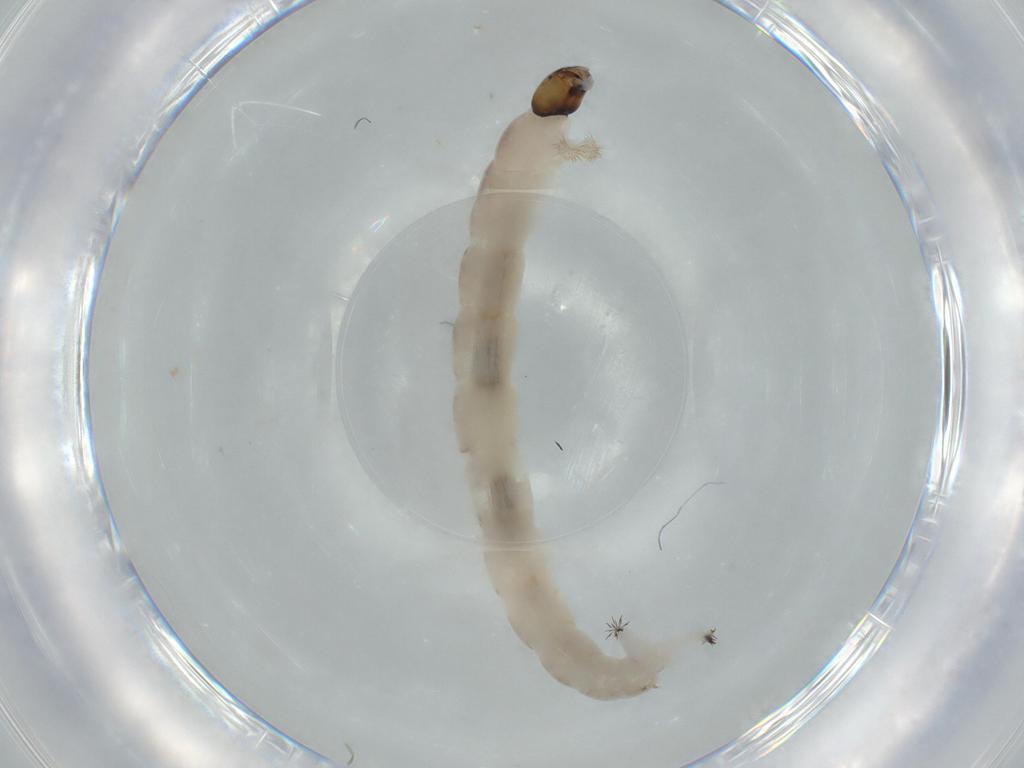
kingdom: Animalia
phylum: Arthropoda
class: Insecta
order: Diptera
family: Chironomidae
